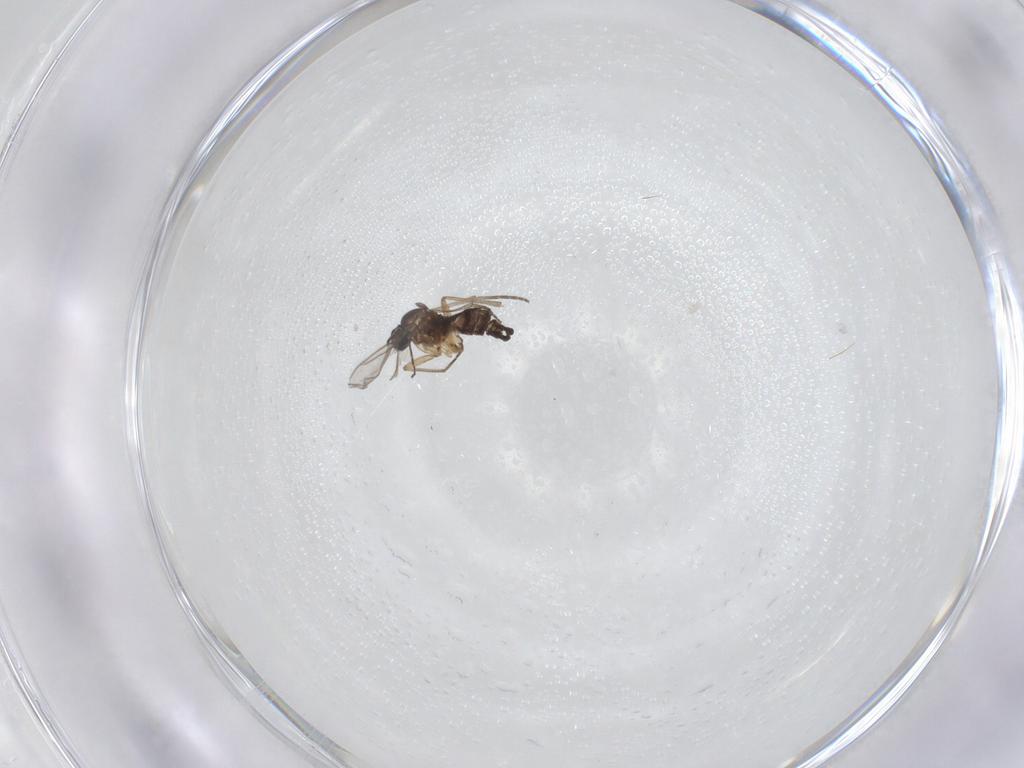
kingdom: Animalia
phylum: Arthropoda
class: Insecta
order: Diptera
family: Sciaridae
